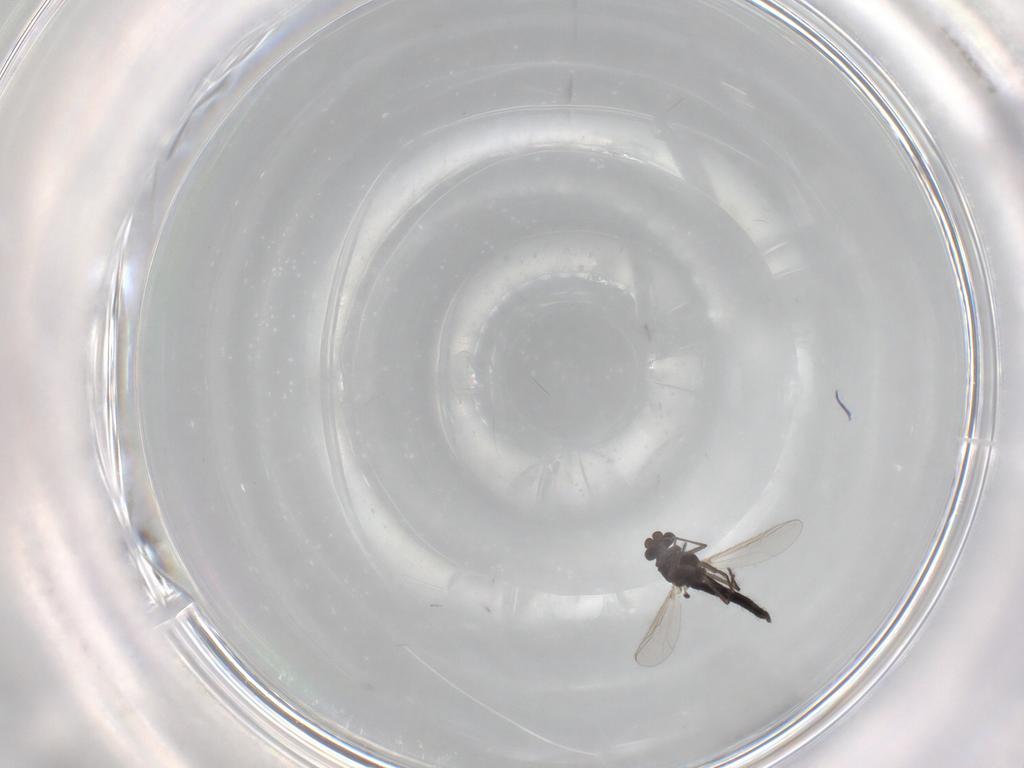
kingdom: Animalia
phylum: Arthropoda
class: Insecta
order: Diptera
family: Chironomidae
